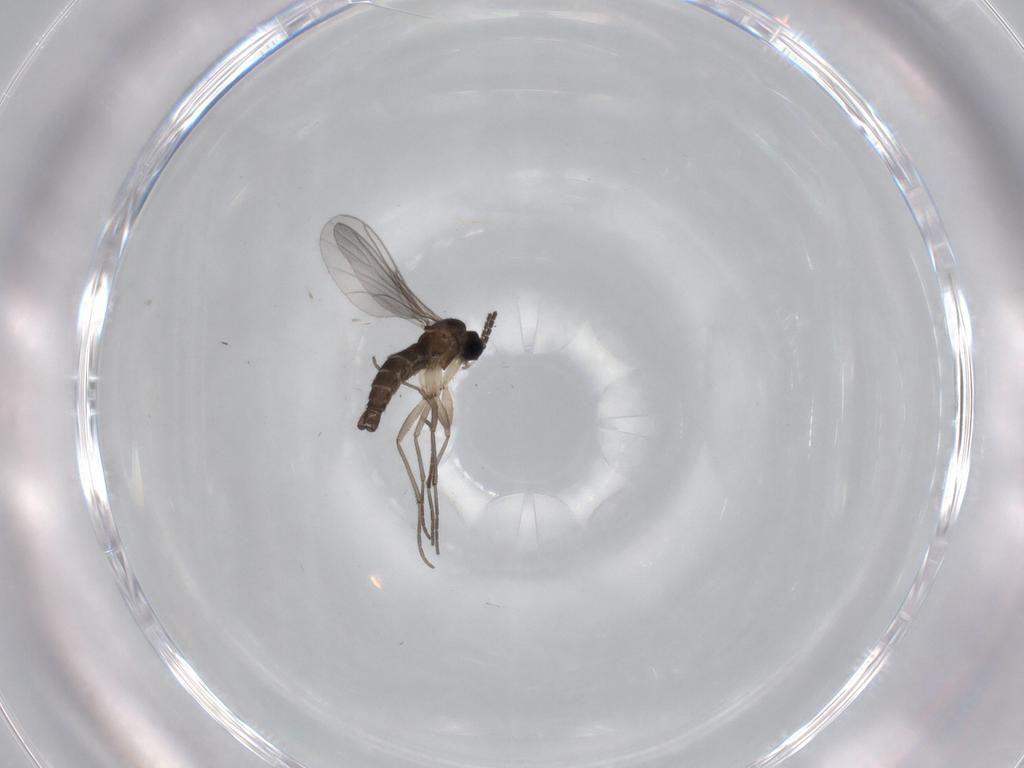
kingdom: Animalia
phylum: Arthropoda
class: Insecta
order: Diptera
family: Sciaridae
